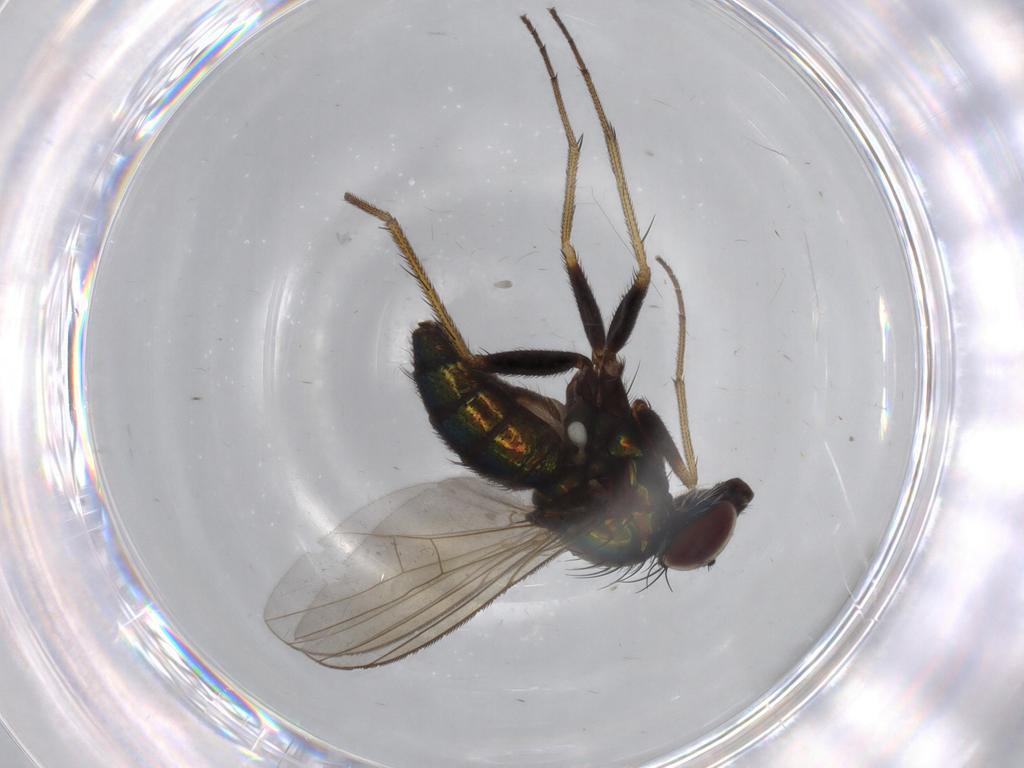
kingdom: Animalia
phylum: Arthropoda
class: Insecta
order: Diptera
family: Dolichopodidae
